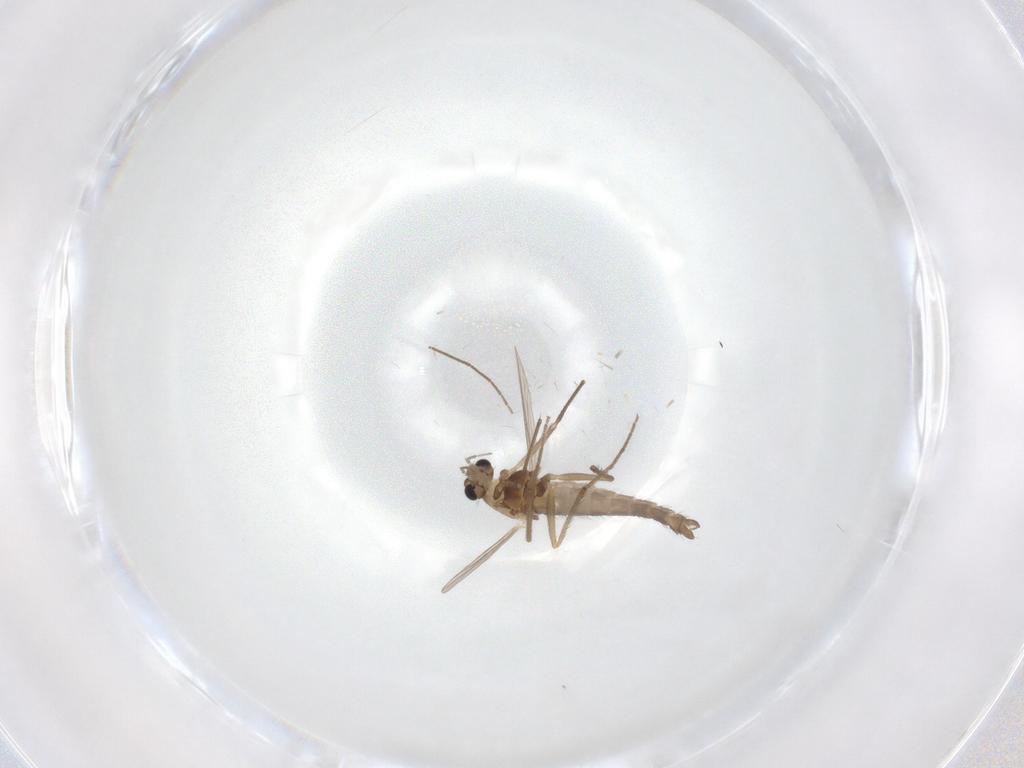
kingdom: Animalia
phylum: Arthropoda
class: Insecta
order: Diptera
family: Chironomidae
